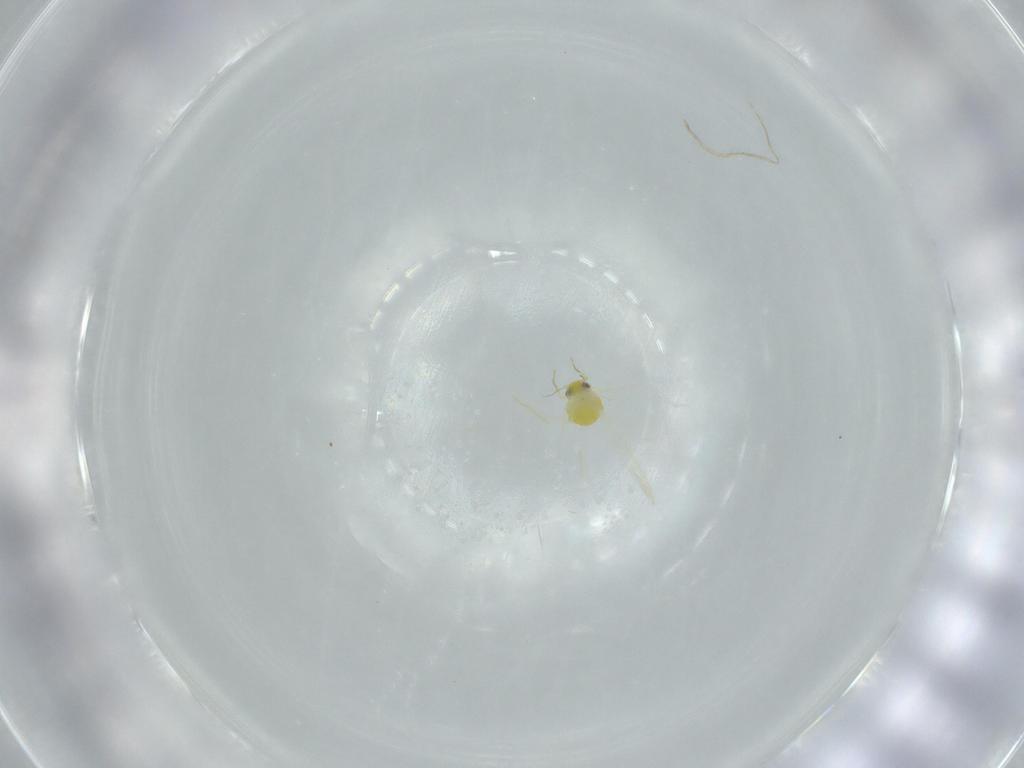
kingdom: Animalia
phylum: Arthropoda
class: Insecta
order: Hemiptera
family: Aleyrodidae
